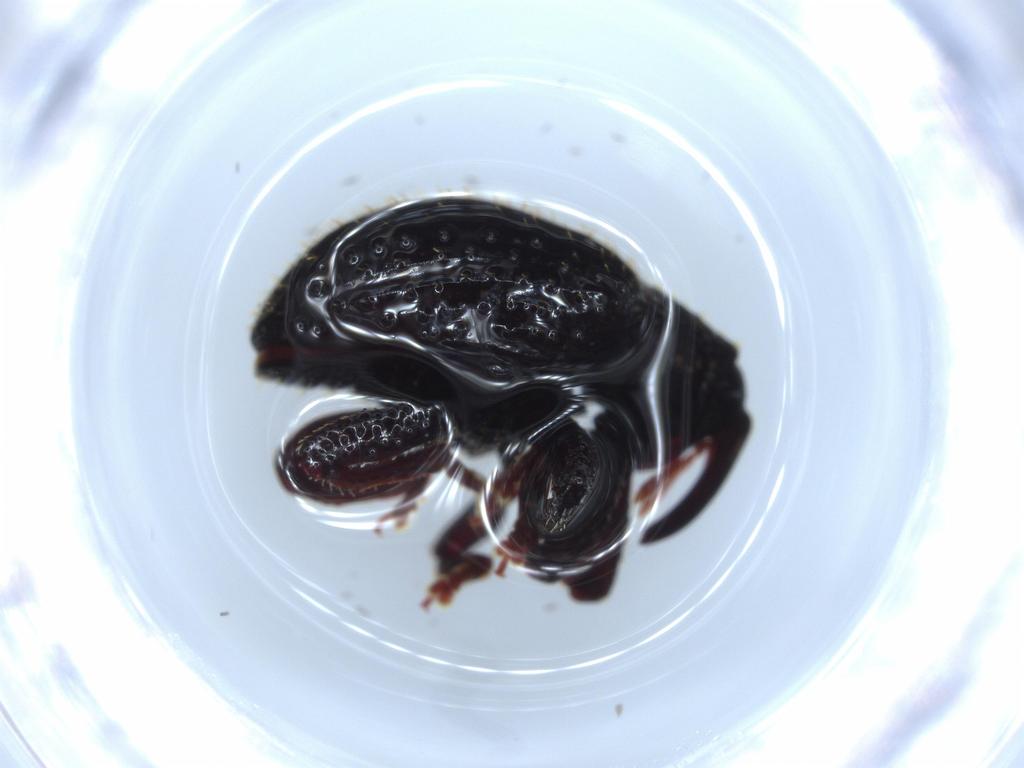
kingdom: Animalia
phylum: Arthropoda
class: Insecta
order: Coleoptera
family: Curculionidae
